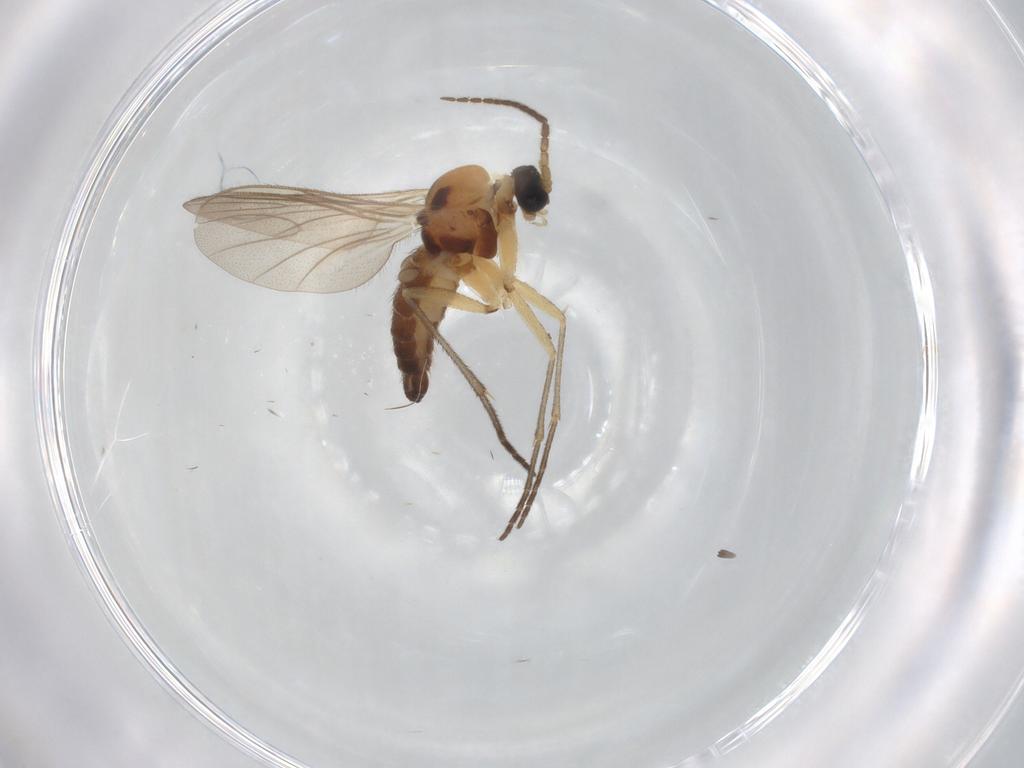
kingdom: Animalia
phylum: Arthropoda
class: Insecta
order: Diptera
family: Sciaridae
